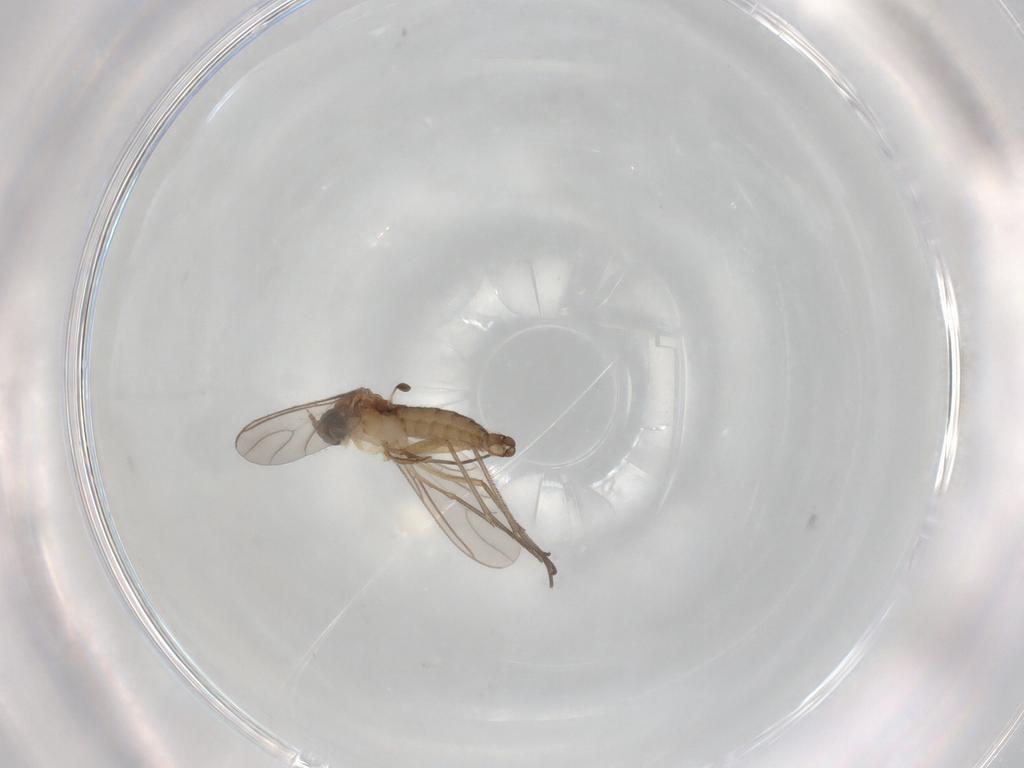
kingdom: Animalia
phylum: Arthropoda
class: Insecta
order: Diptera
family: Sciaridae
